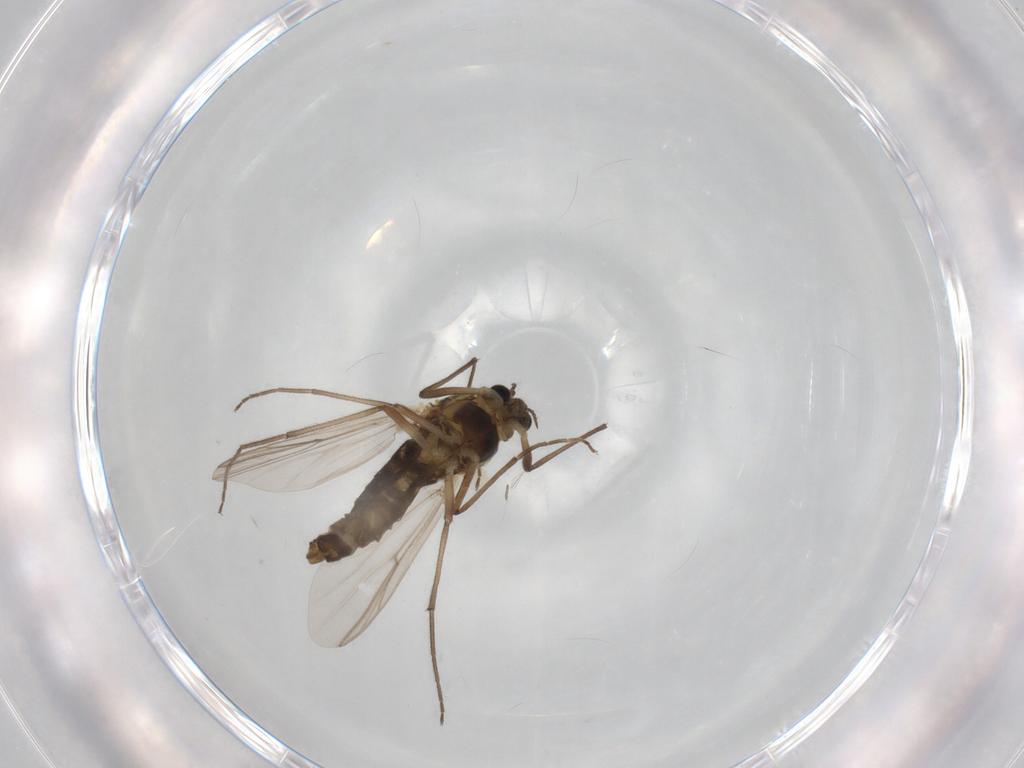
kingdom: Animalia
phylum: Arthropoda
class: Insecta
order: Diptera
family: Chironomidae
